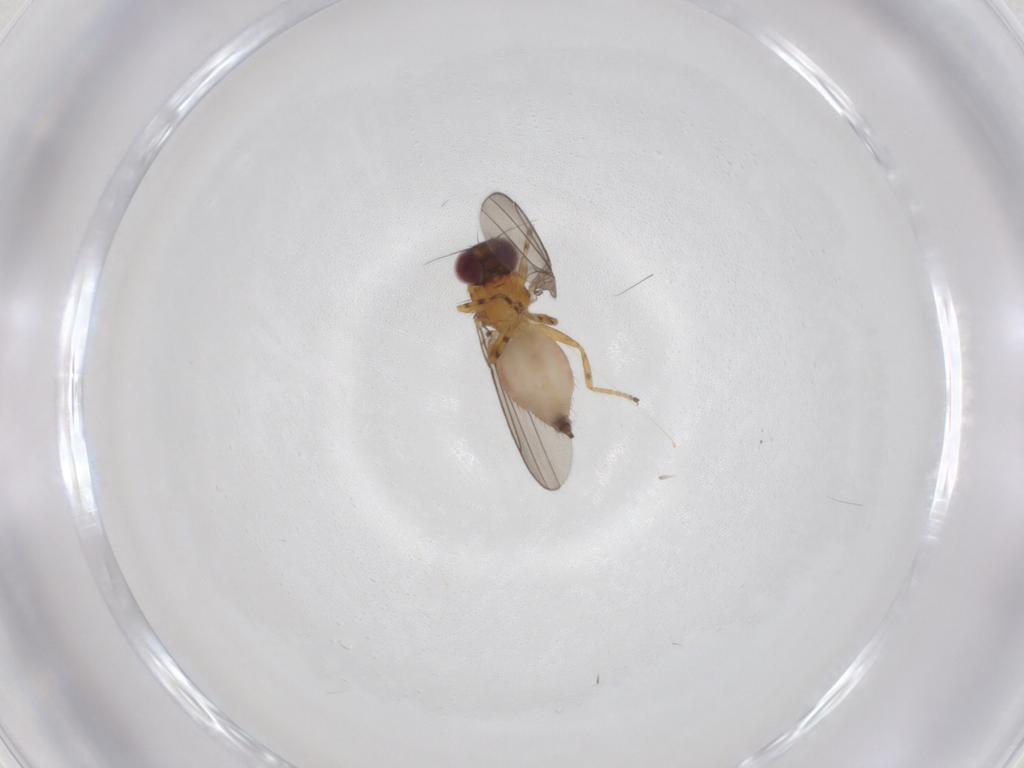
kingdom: Animalia
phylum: Arthropoda
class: Insecta
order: Diptera
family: Chloropidae
